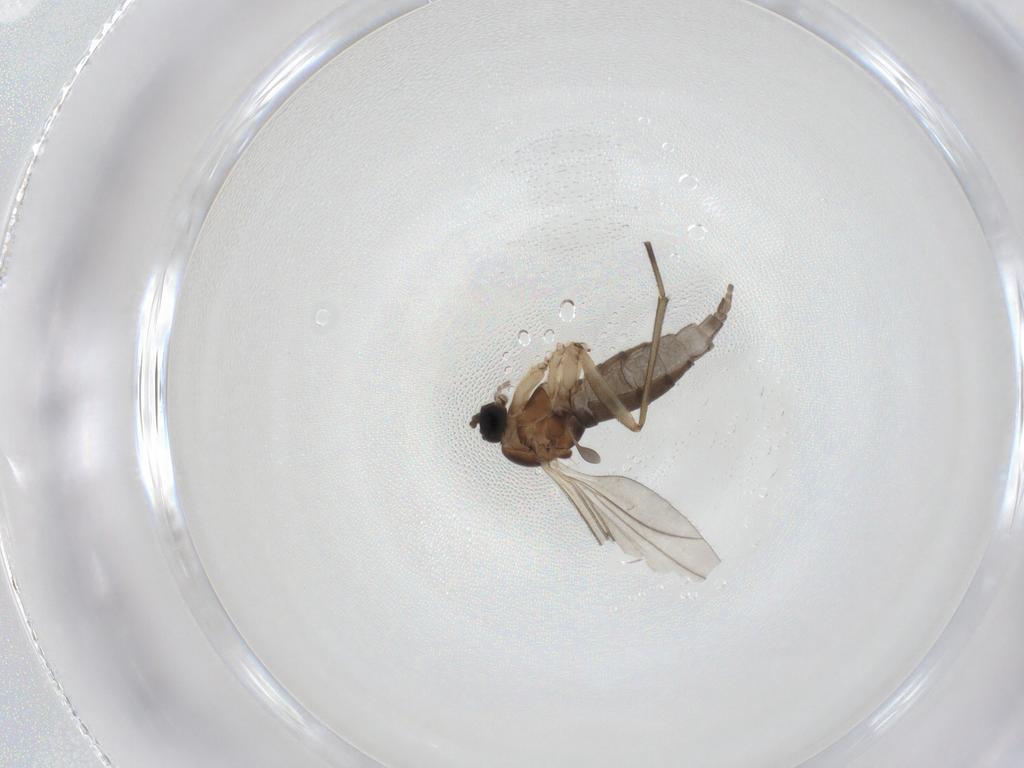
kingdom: Animalia
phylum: Arthropoda
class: Insecta
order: Diptera
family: Sciaridae
